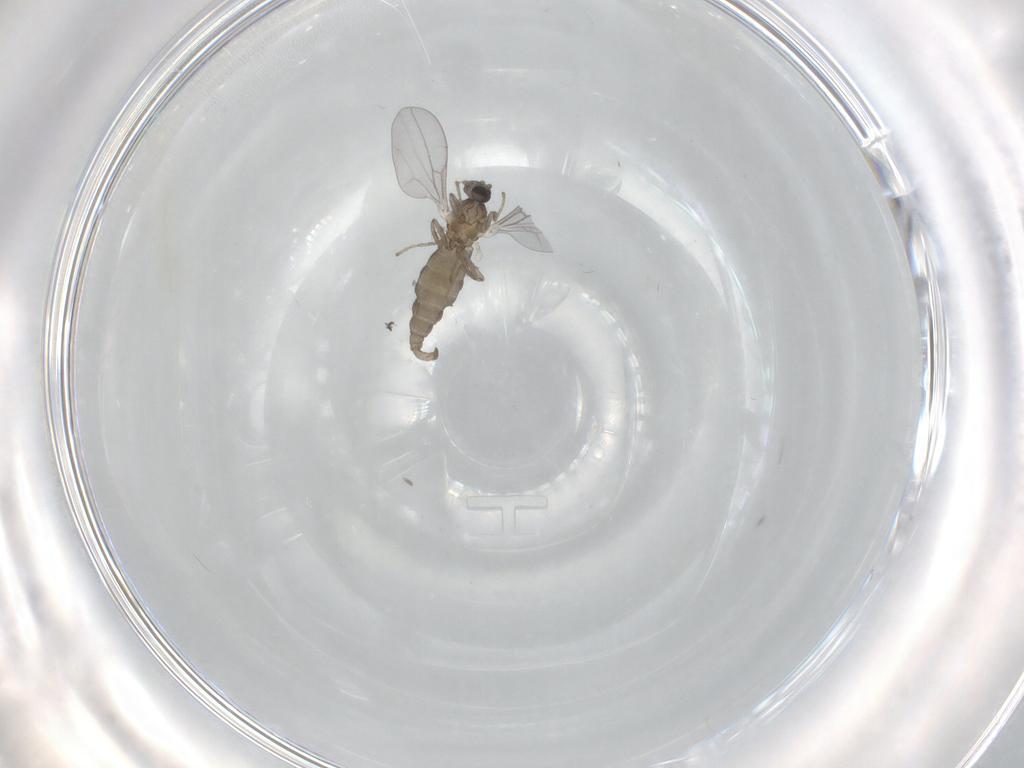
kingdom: Animalia
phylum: Arthropoda
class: Insecta
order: Diptera
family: Cecidomyiidae
